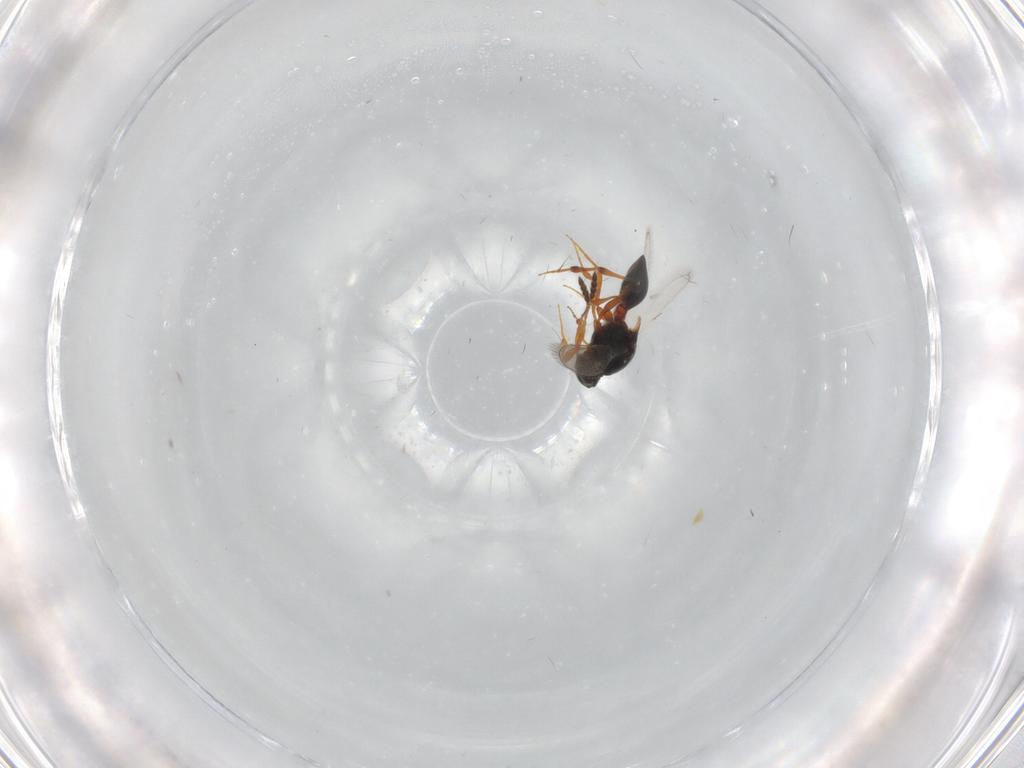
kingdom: Animalia
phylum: Arthropoda
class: Insecta
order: Hymenoptera
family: Platygastridae
